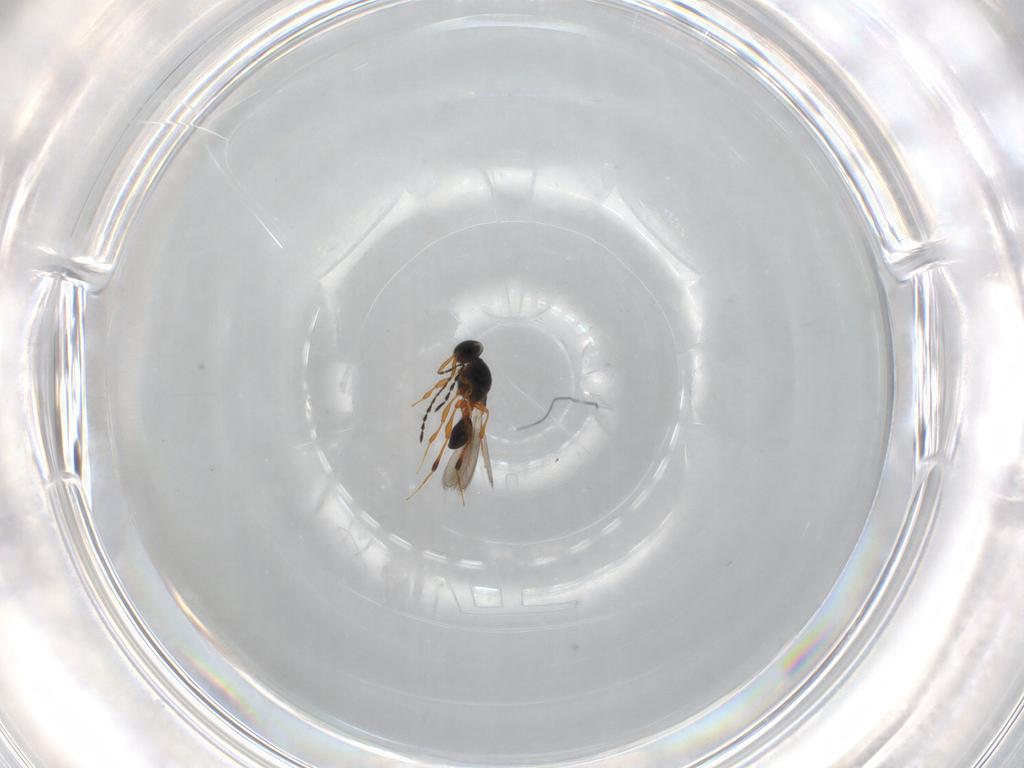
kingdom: Animalia
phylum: Arthropoda
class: Insecta
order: Hymenoptera
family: Platygastridae
